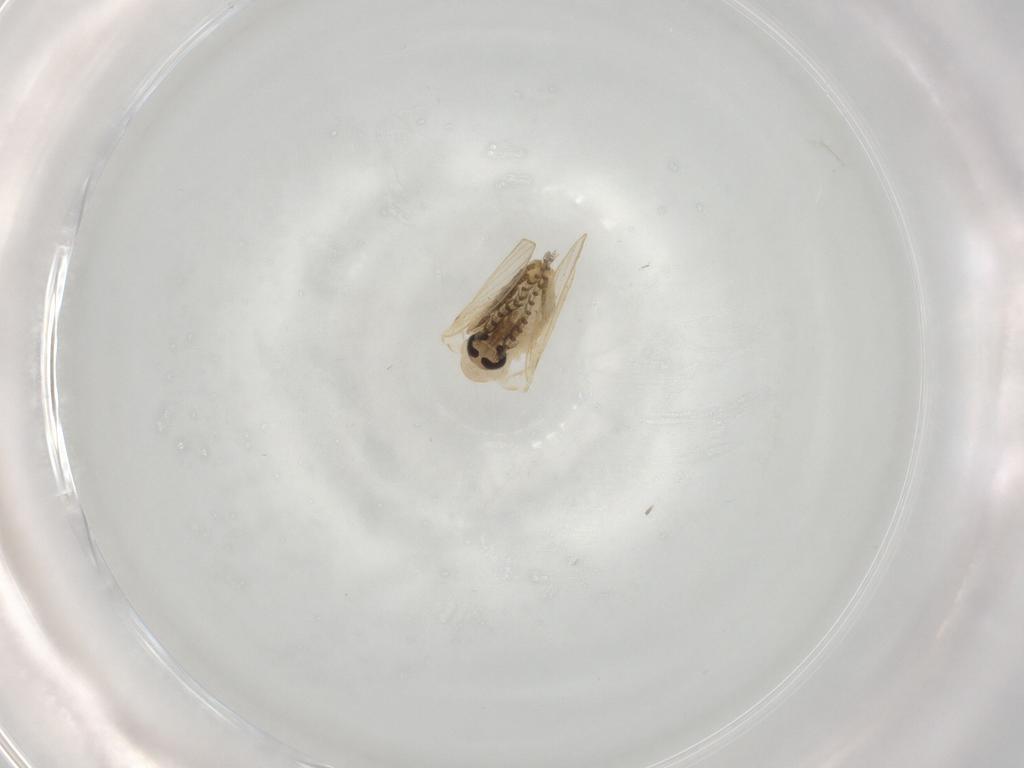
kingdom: Animalia
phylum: Arthropoda
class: Insecta
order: Diptera
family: Psychodidae
